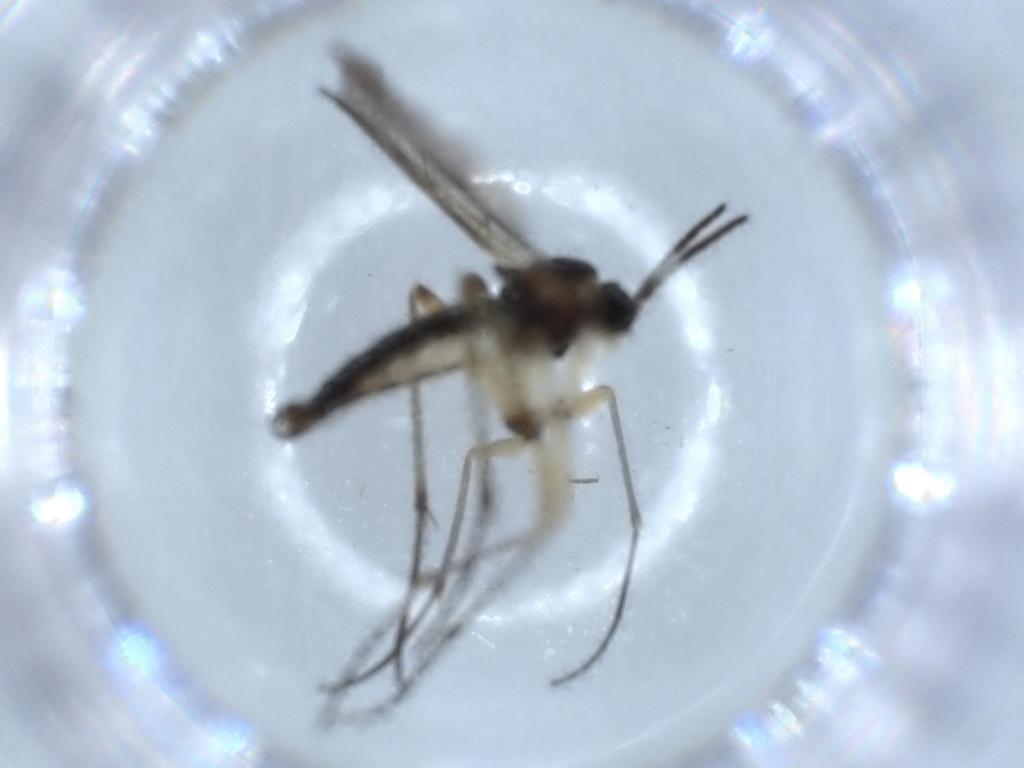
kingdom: Animalia
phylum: Arthropoda
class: Insecta
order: Diptera
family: Sciaridae
